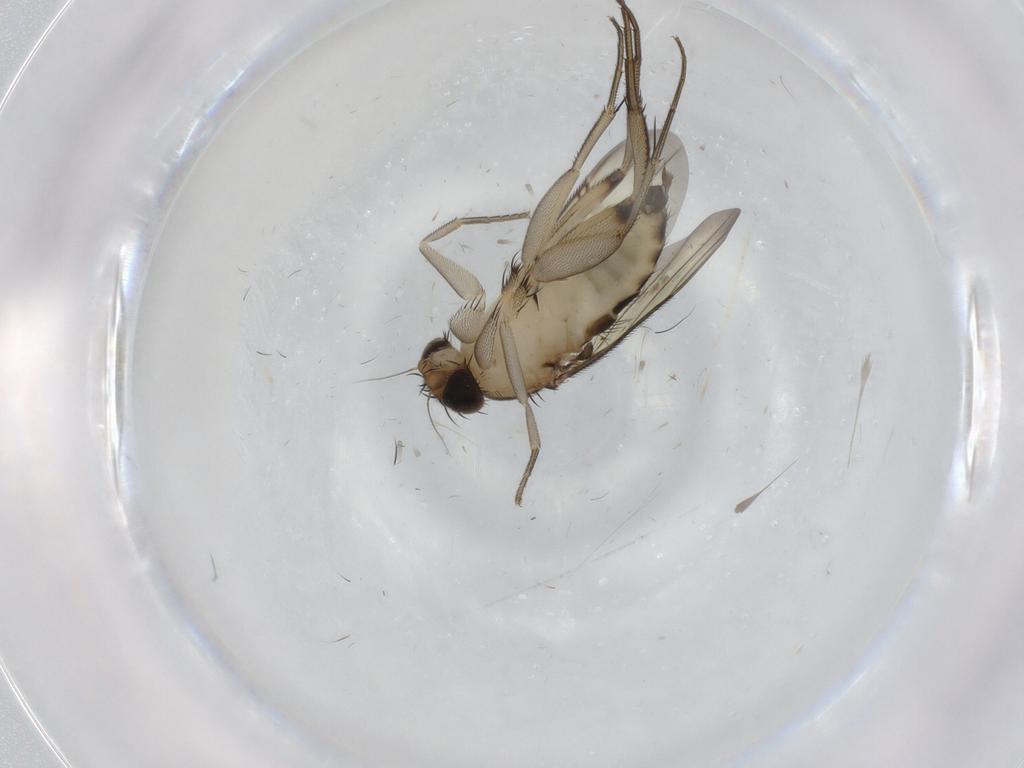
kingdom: Animalia
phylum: Arthropoda
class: Insecta
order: Diptera
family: Phoridae
